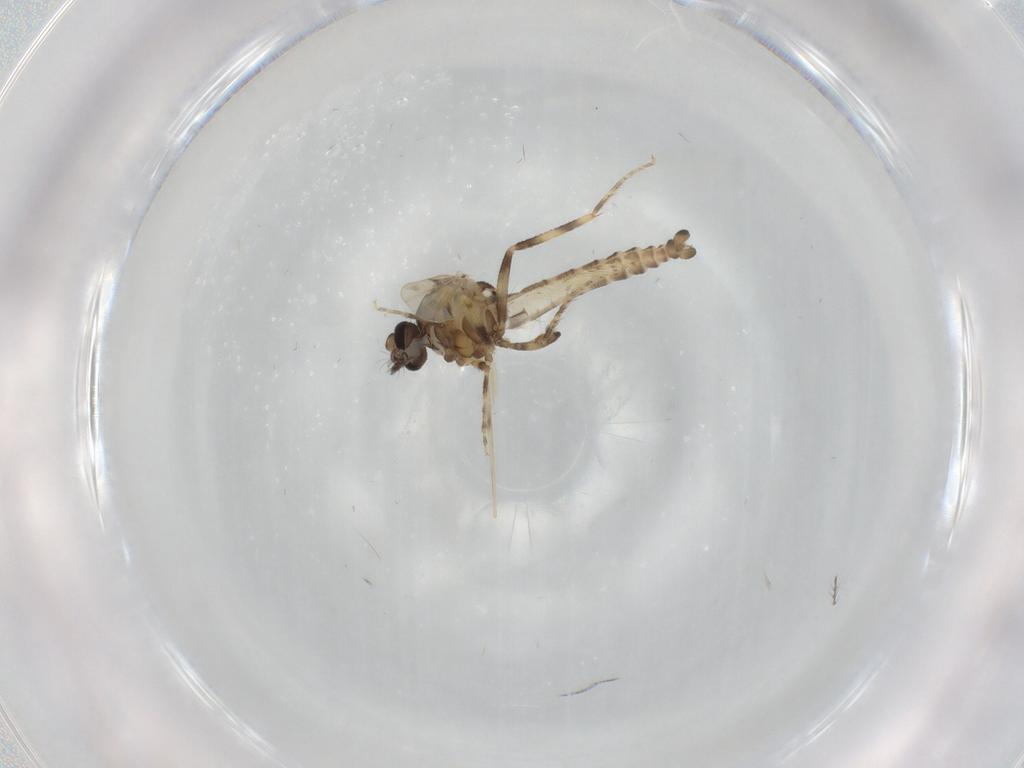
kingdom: Animalia
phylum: Arthropoda
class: Insecta
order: Diptera
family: Ceratopogonidae
